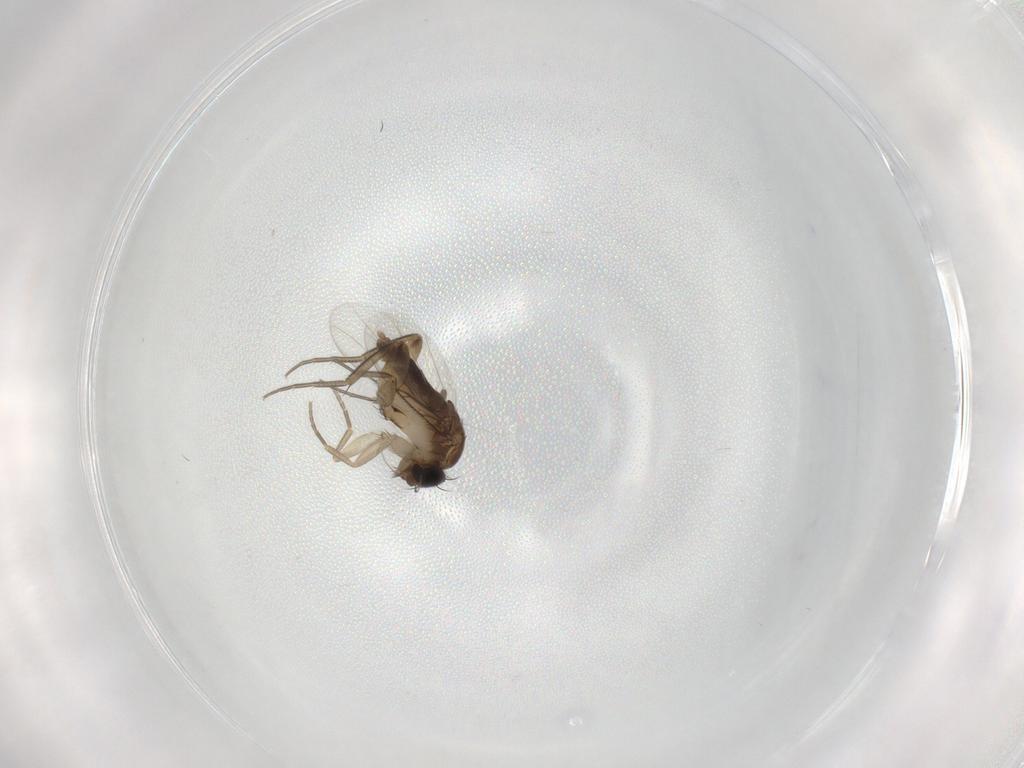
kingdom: Animalia
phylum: Arthropoda
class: Insecta
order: Diptera
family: Phoridae
